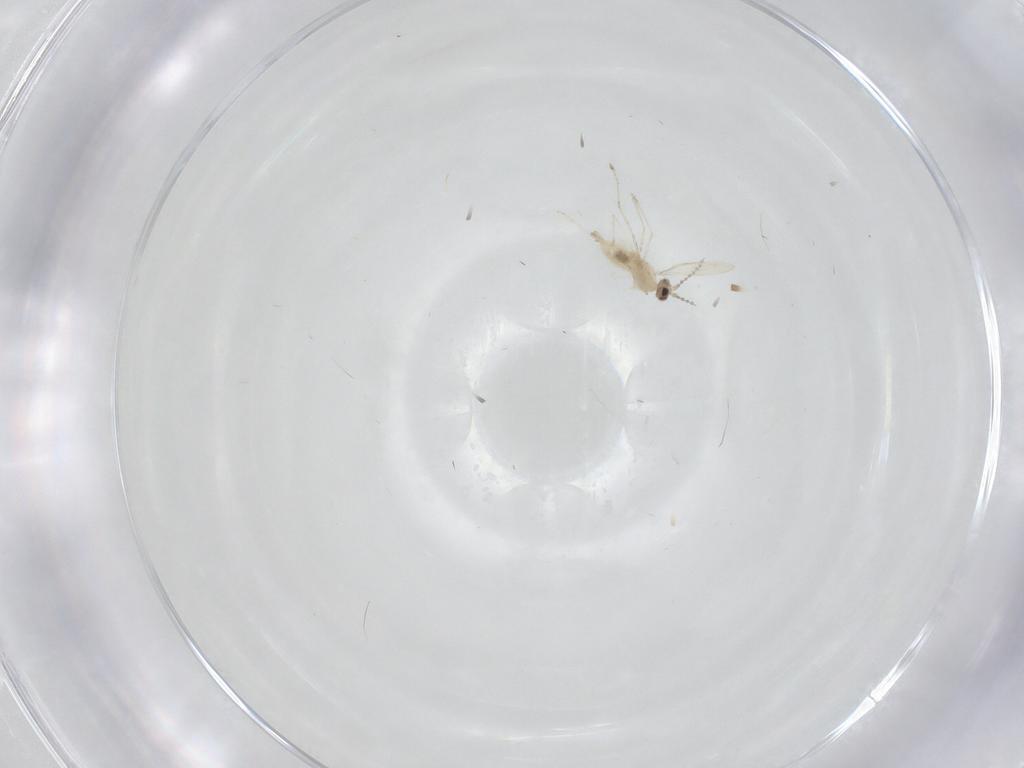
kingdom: Animalia
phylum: Arthropoda
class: Insecta
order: Diptera
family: Cecidomyiidae
